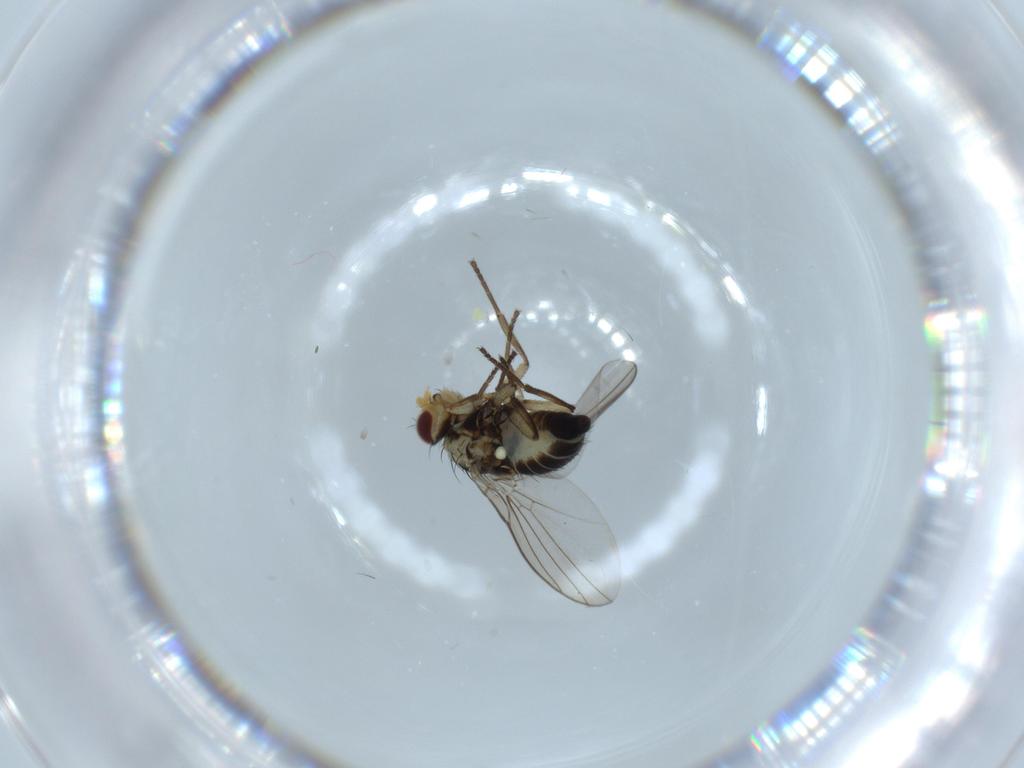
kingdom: Animalia
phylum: Arthropoda
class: Insecta
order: Diptera
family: Agromyzidae
